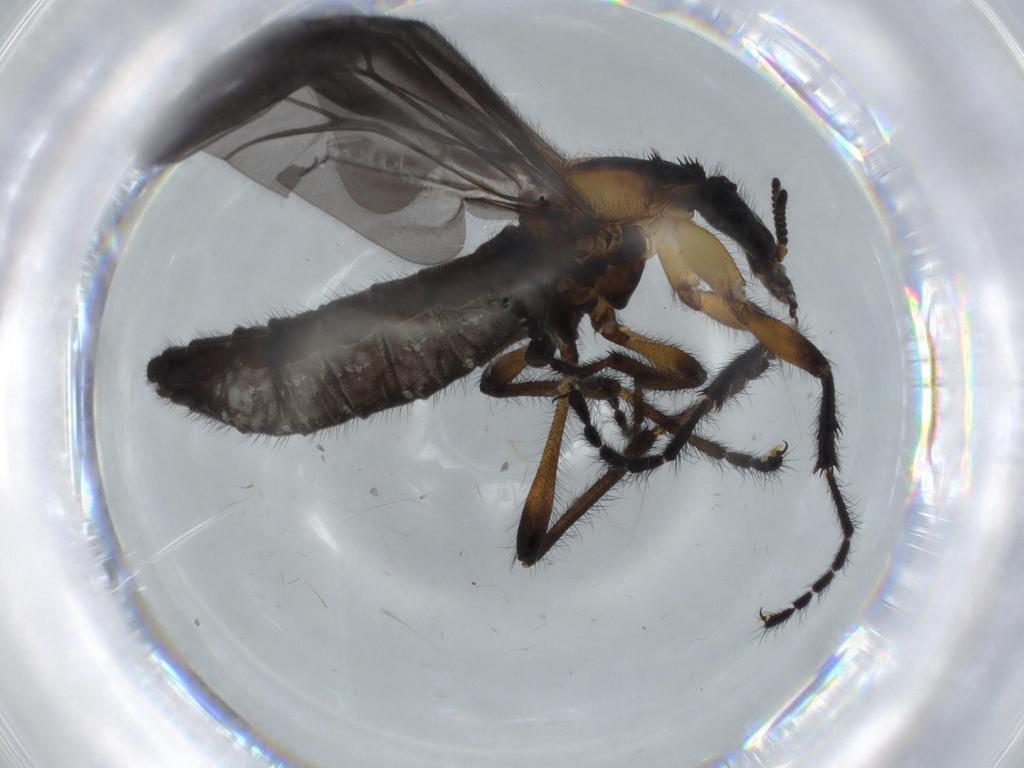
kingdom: Animalia
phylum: Arthropoda
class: Insecta
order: Diptera
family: Bibionidae
